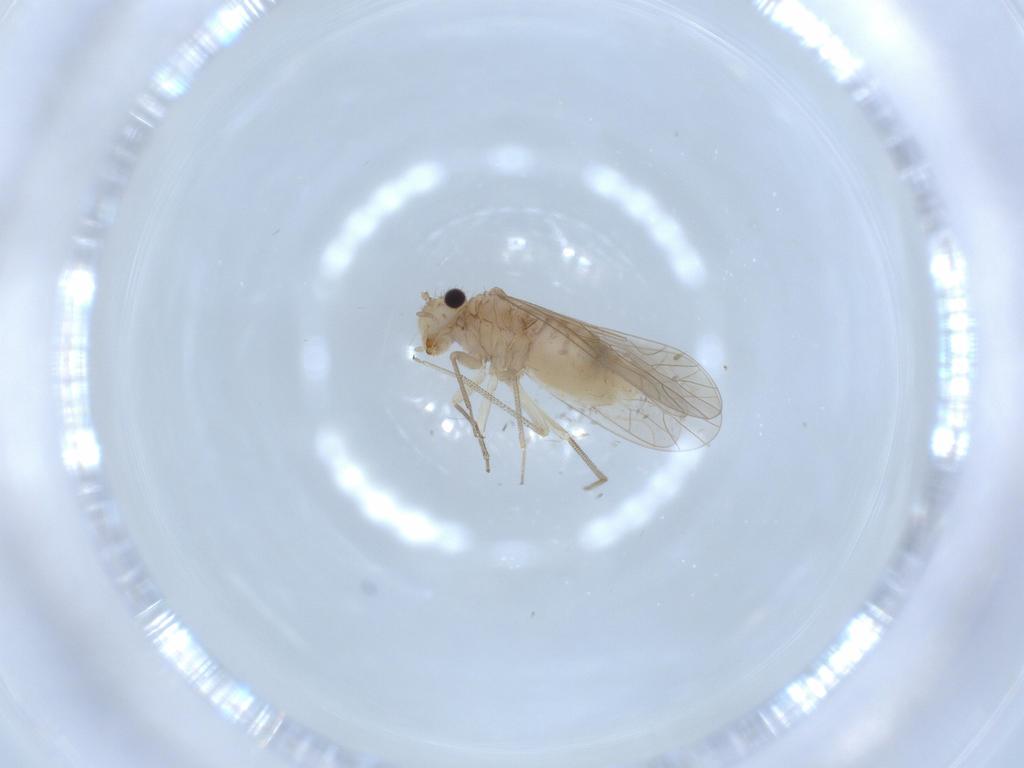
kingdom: Animalia
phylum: Arthropoda
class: Insecta
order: Psocodea
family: Caeciliusidae
